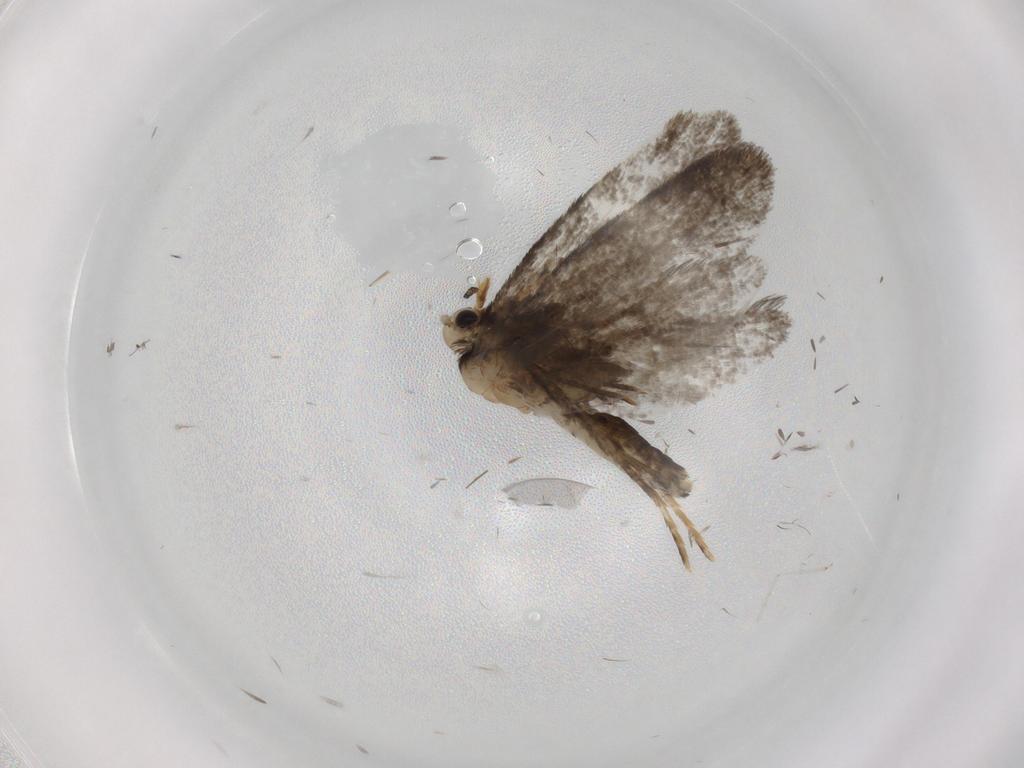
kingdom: Animalia
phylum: Arthropoda
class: Insecta
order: Lepidoptera
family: Psychidae
